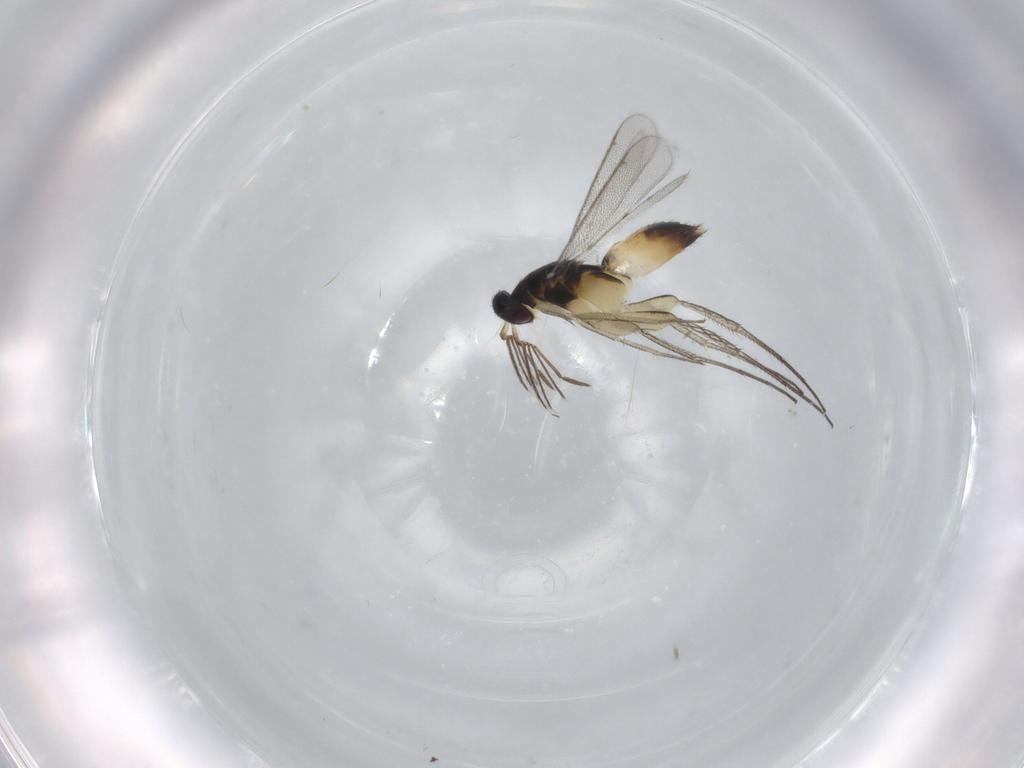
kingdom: Animalia
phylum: Arthropoda
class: Insecta
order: Hymenoptera
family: Eulophidae
